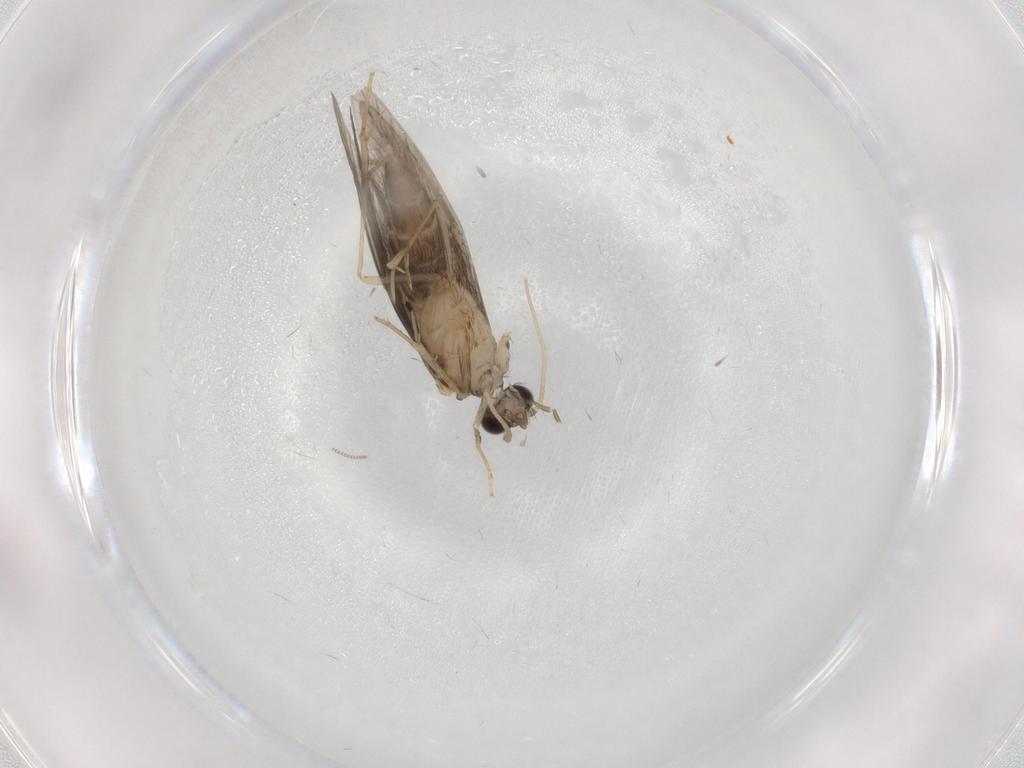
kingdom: Animalia
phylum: Arthropoda
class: Insecta
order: Trichoptera
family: Hydroptilidae
